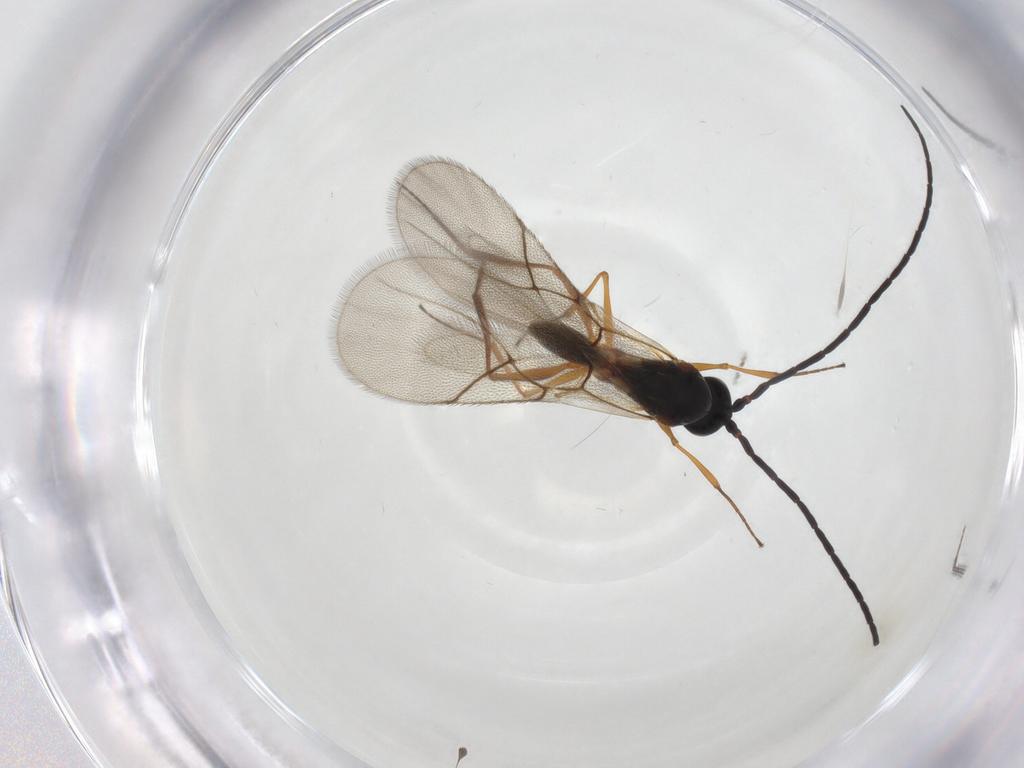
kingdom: Animalia
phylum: Arthropoda
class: Insecta
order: Hymenoptera
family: Figitidae
